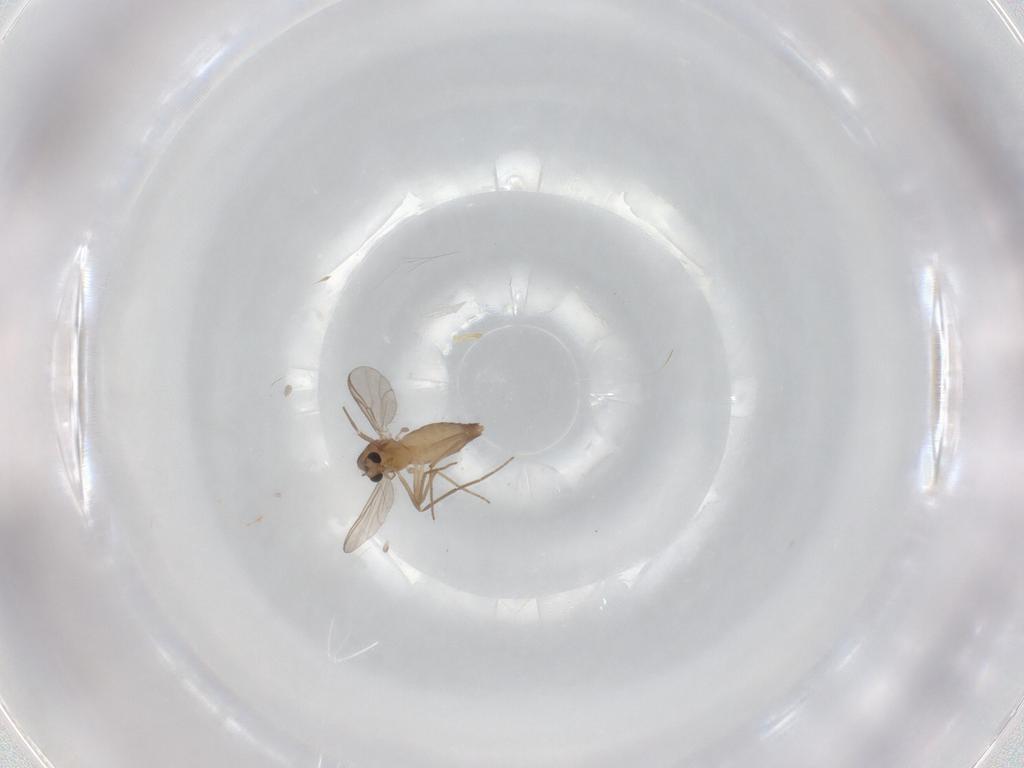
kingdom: Animalia
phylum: Arthropoda
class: Insecta
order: Diptera
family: Chironomidae
